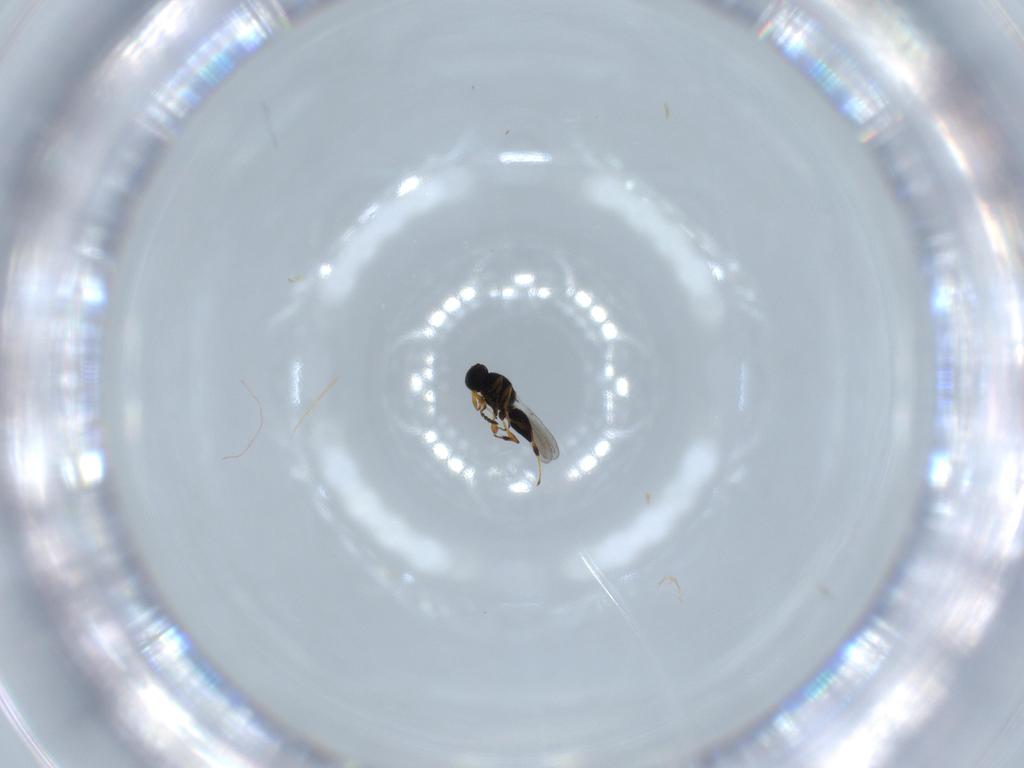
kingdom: Animalia
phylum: Arthropoda
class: Insecta
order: Hymenoptera
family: Platygastridae
